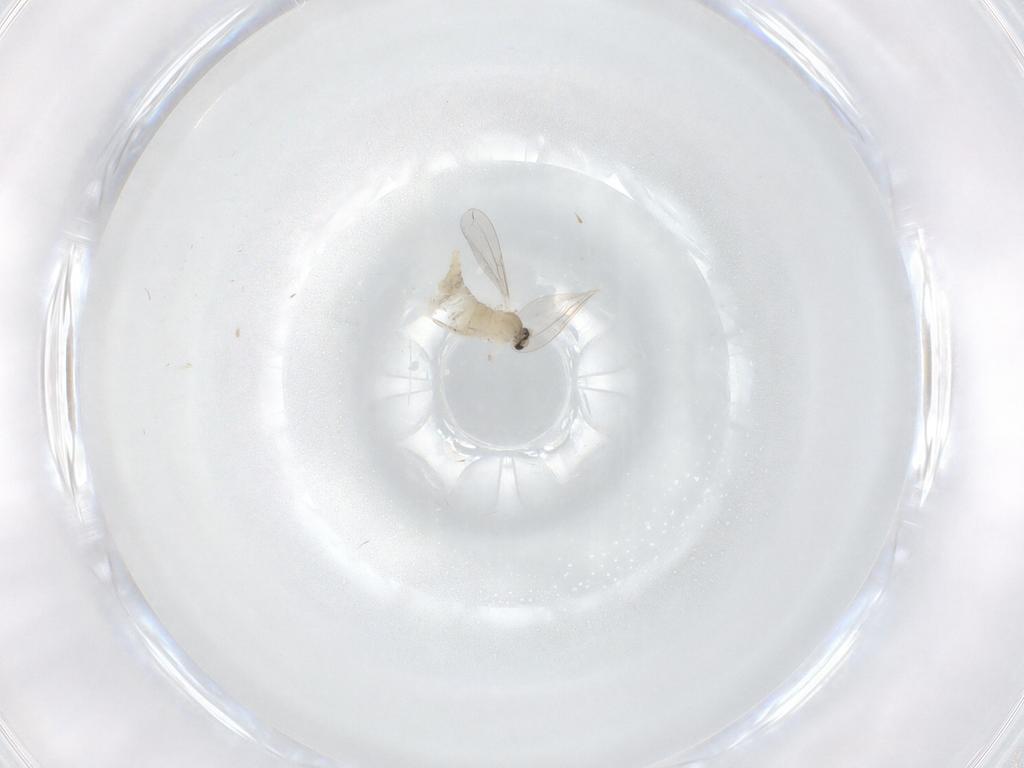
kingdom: Animalia
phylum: Arthropoda
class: Insecta
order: Diptera
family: Cecidomyiidae
